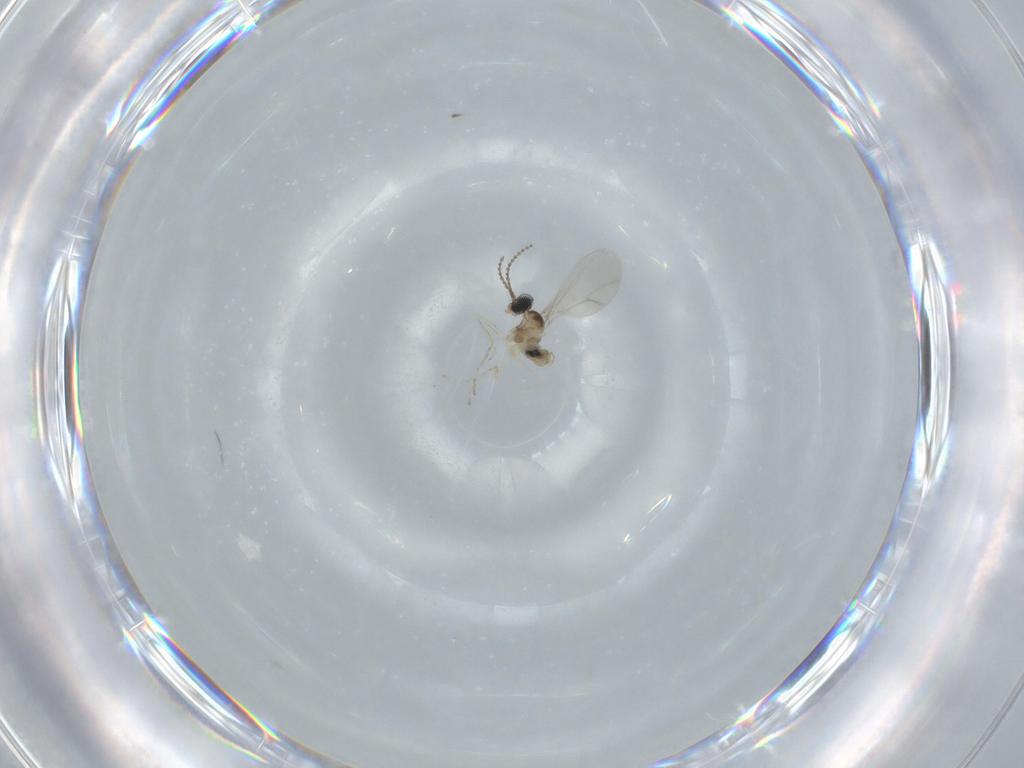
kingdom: Animalia
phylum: Arthropoda
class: Insecta
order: Diptera
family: Cecidomyiidae
